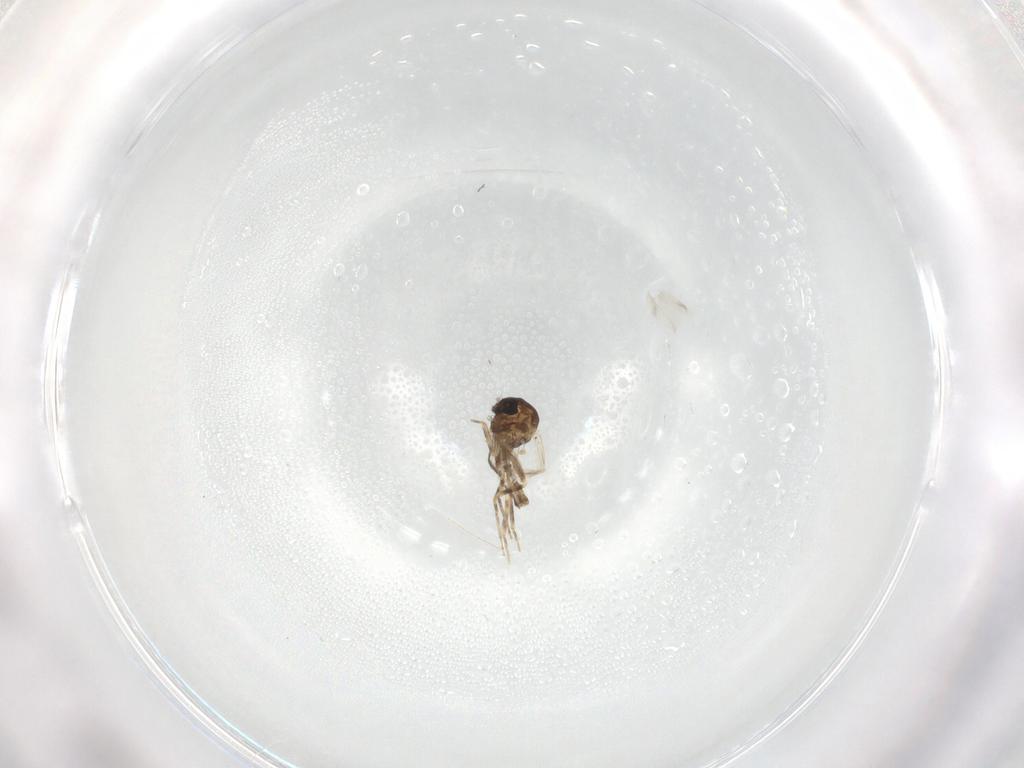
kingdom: Animalia
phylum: Arthropoda
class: Insecta
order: Diptera
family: Ceratopogonidae
